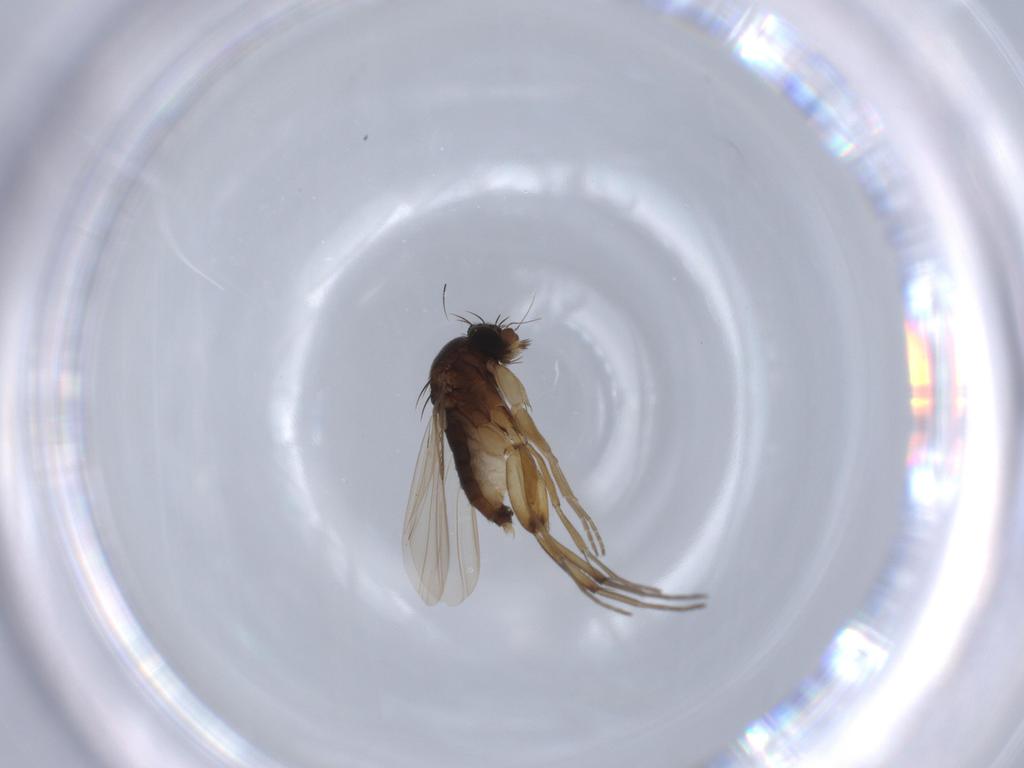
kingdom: Animalia
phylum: Arthropoda
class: Insecta
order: Diptera
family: Phoridae
